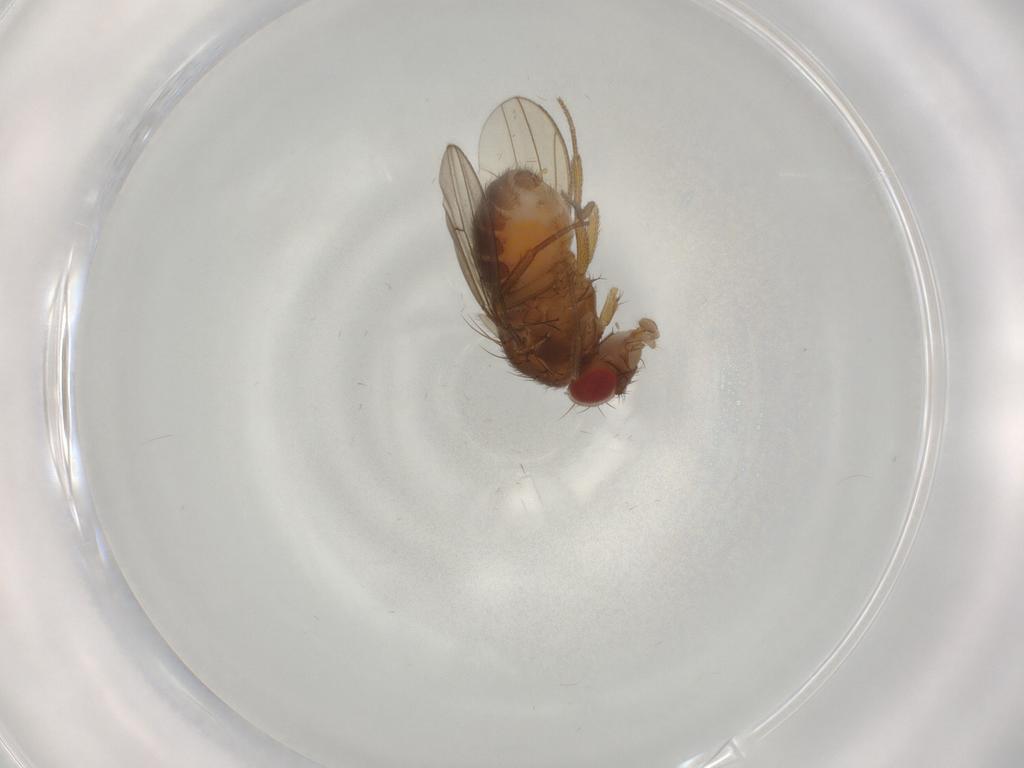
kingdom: Animalia
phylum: Arthropoda
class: Insecta
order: Diptera
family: Drosophilidae
